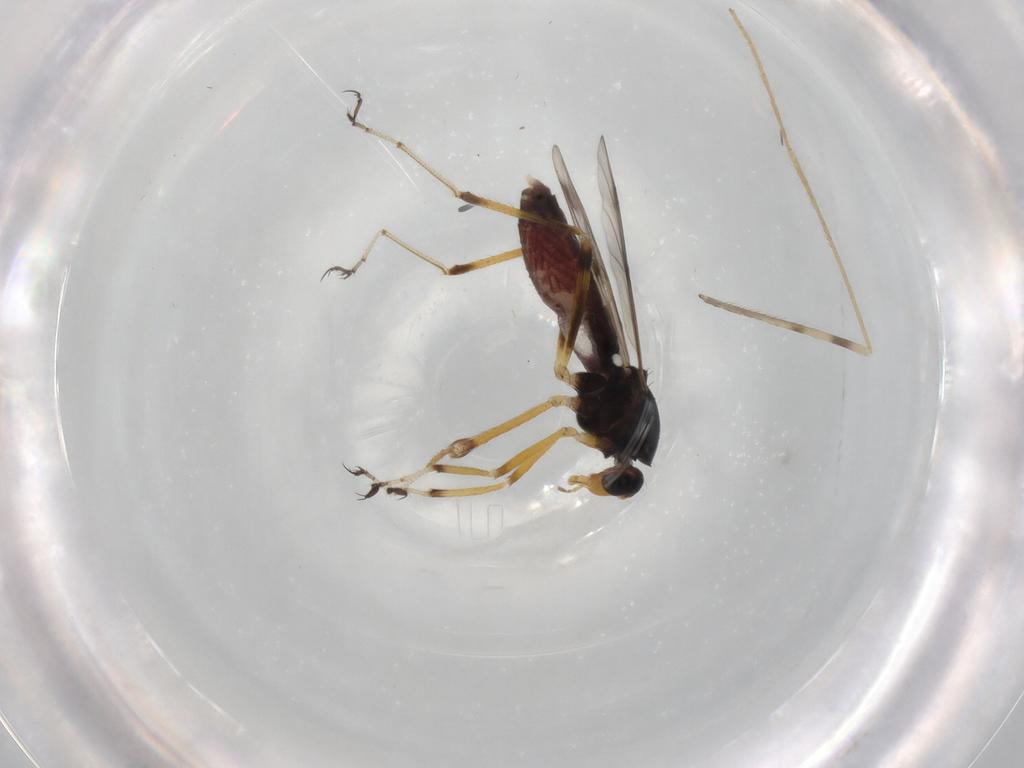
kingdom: Animalia
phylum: Arthropoda
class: Insecta
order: Diptera
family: Ceratopogonidae
